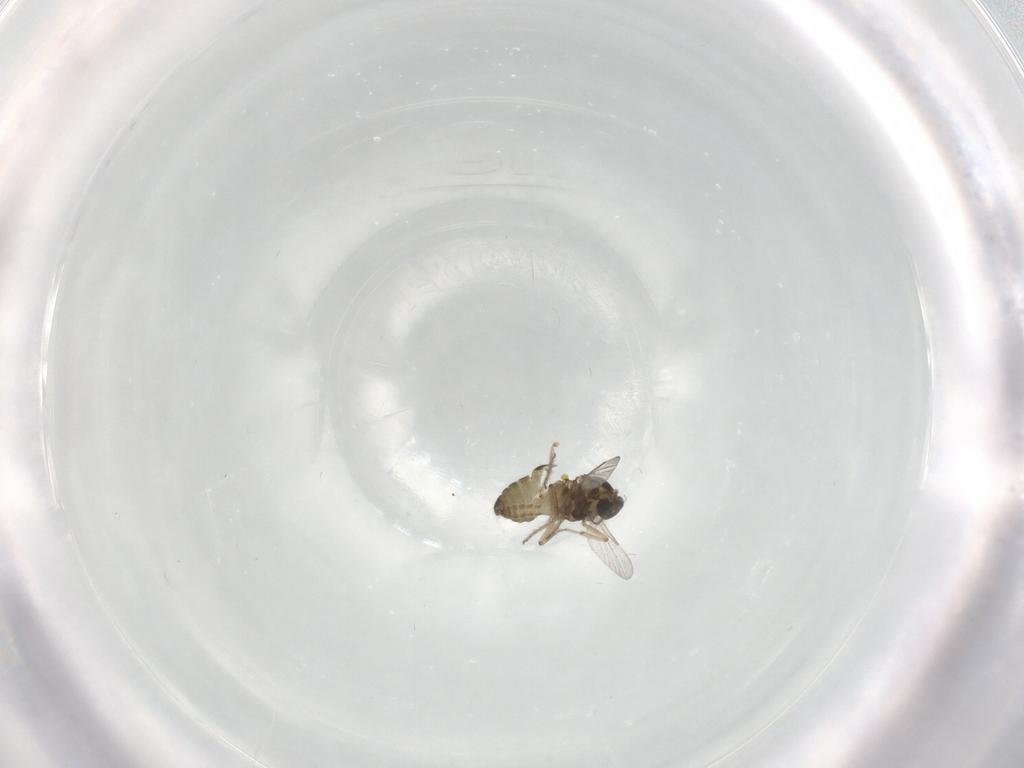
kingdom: Animalia
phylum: Arthropoda
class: Insecta
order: Diptera
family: Ceratopogonidae
